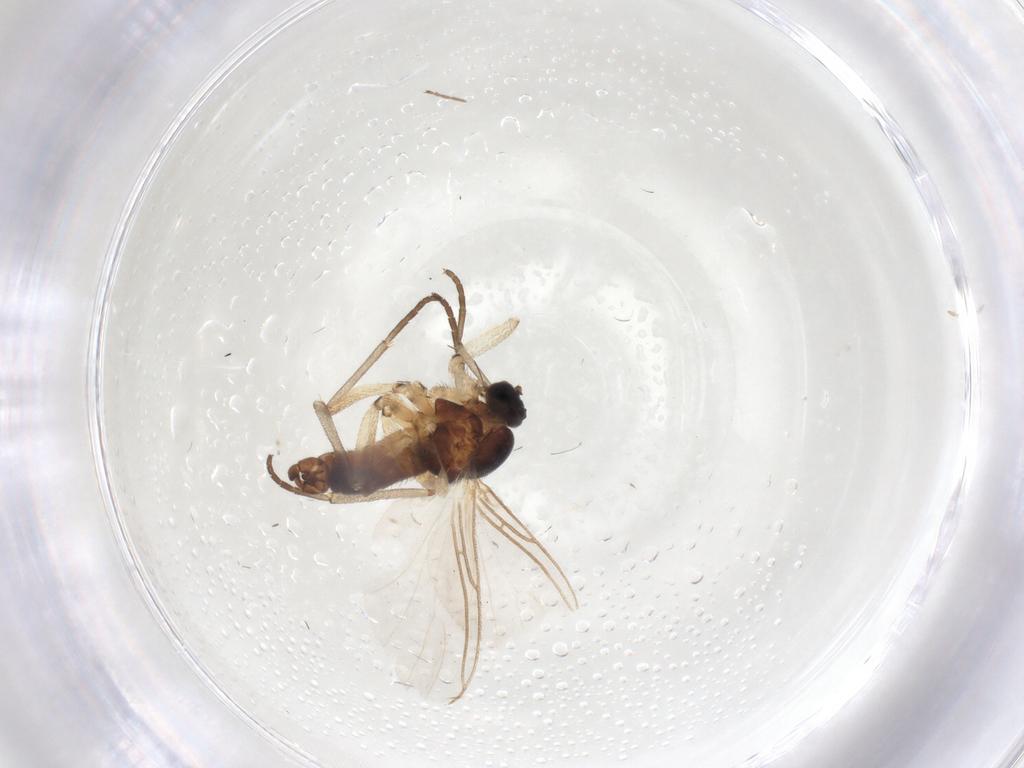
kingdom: Animalia
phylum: Arthropoda
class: Insecta
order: Diptera
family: Sciaridae
